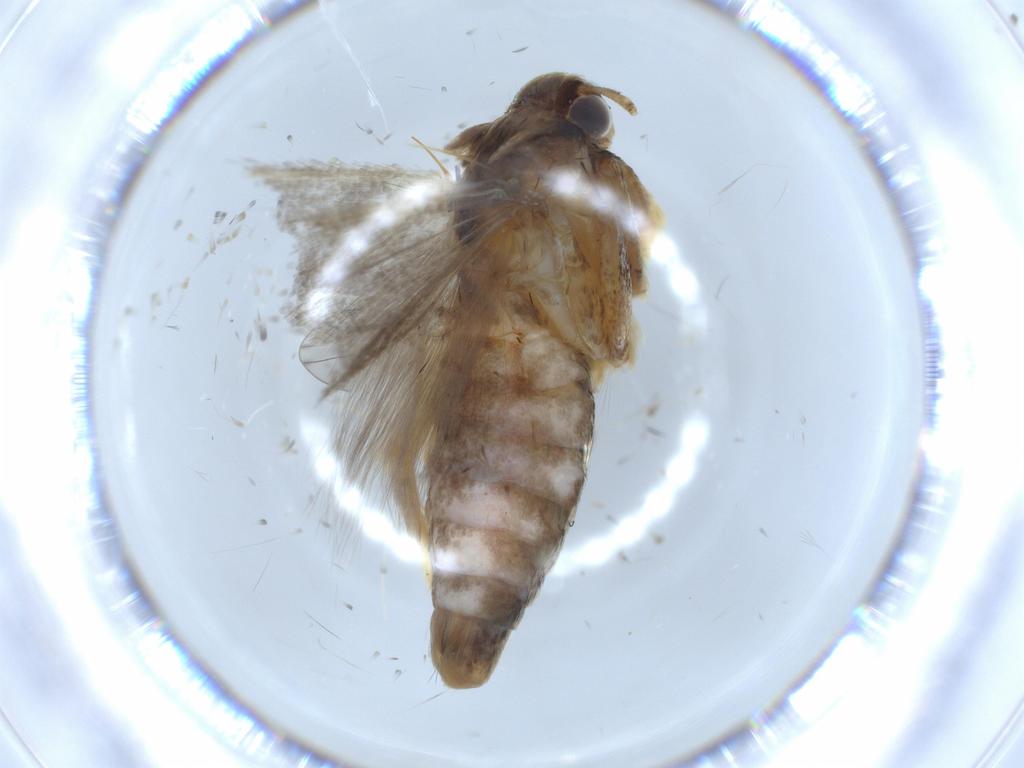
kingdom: Animalia
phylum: Arthropoda
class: Insecta
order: Lepidoptera
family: Gelechiidae
